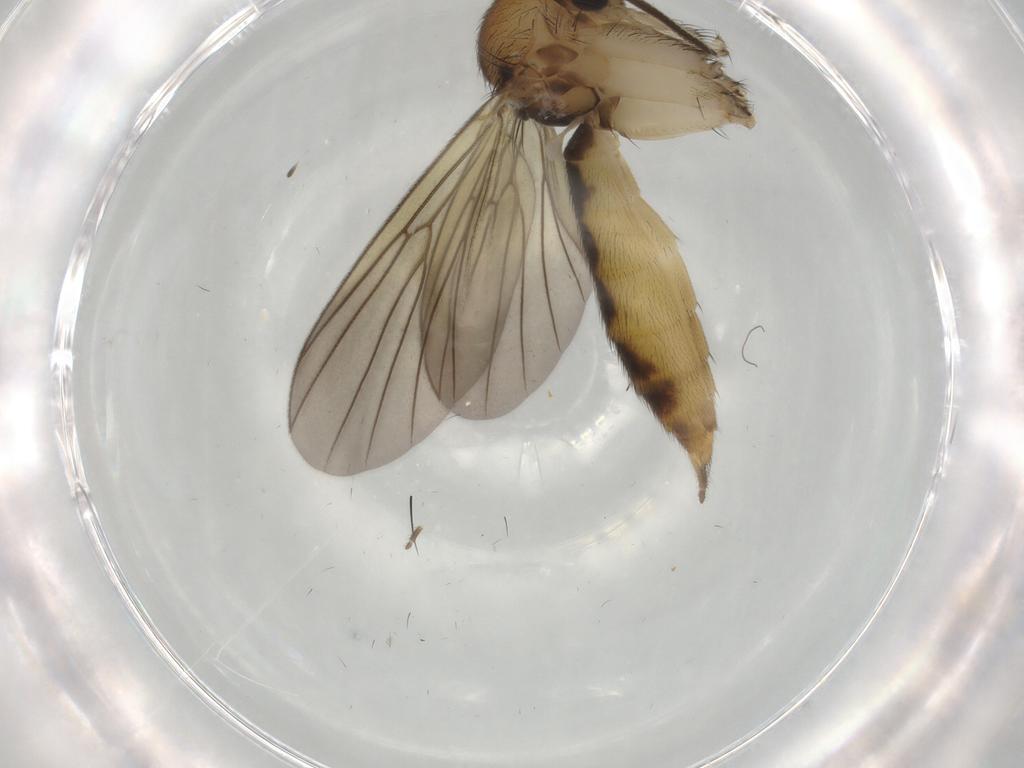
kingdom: Animalia
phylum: Arthropoda
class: Insecta
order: Diptera
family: Mycetophilidae
